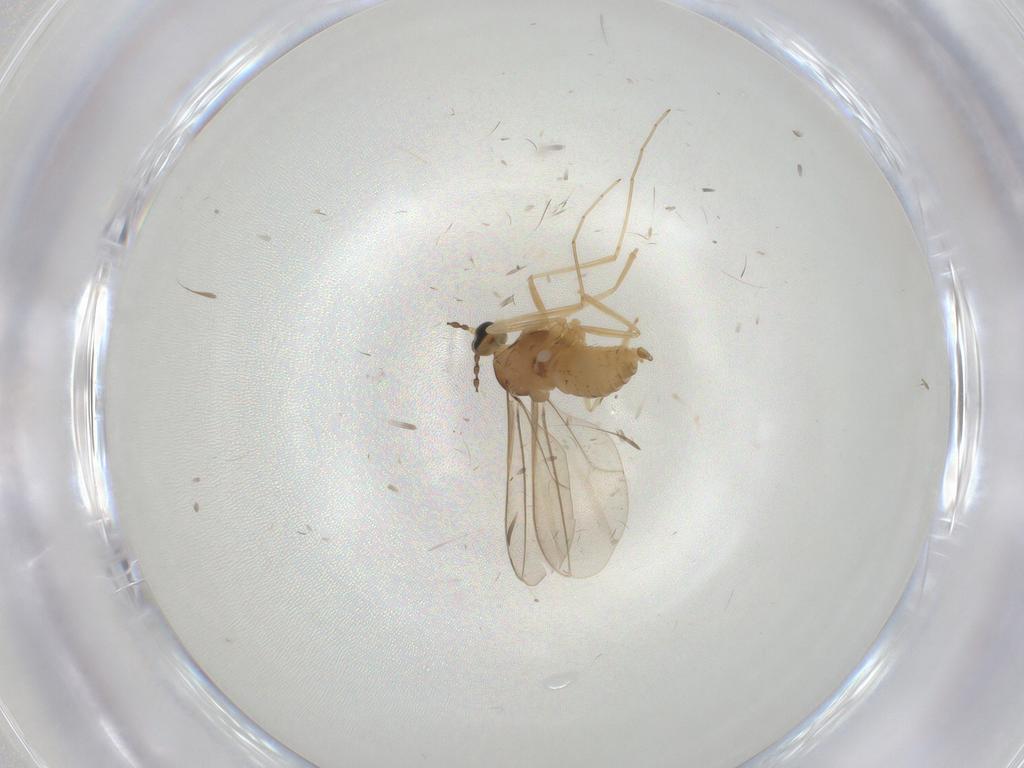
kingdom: Animalia
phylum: Arthropoda
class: Insecta
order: Diptera
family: Cecidomyiidae
